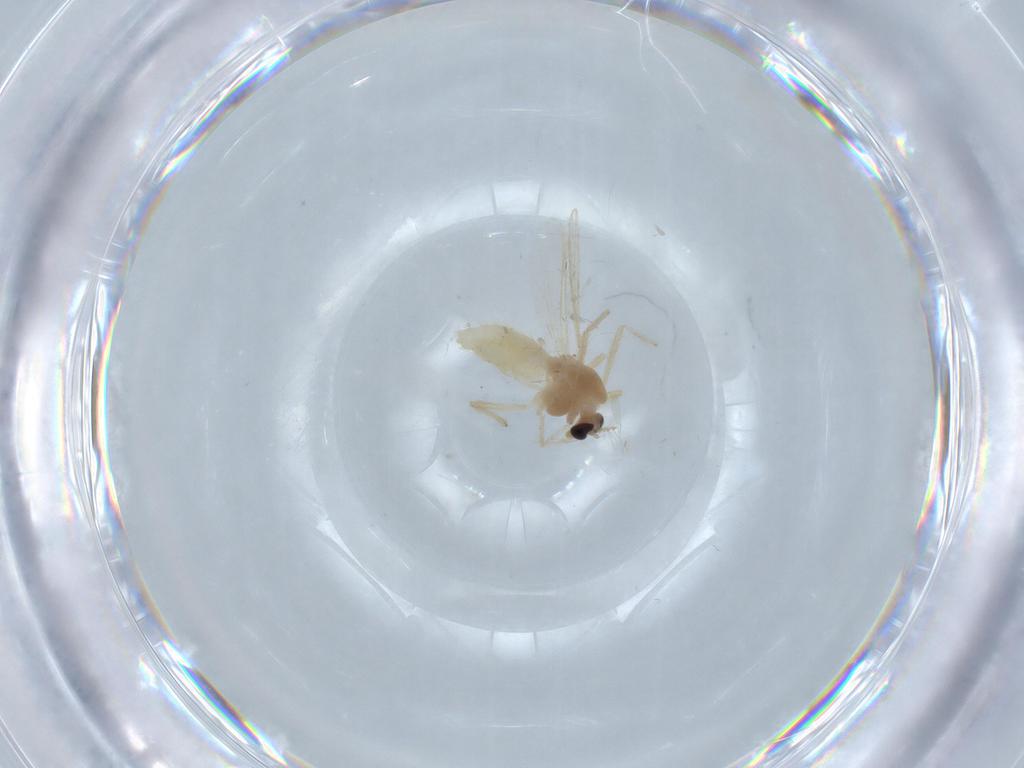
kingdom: Animalia
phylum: Arthropoda
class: Insecta
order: Diptera
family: Chironomidae
